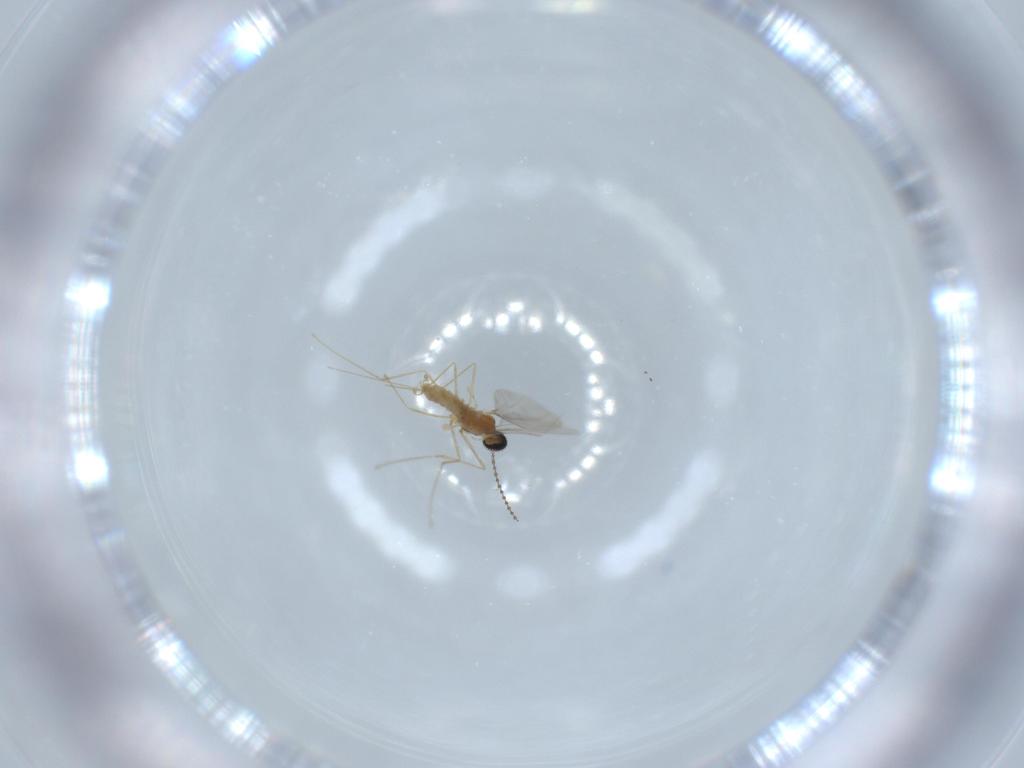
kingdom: Animalia
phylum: Arthropoda
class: Insecta
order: Diptera
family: Cecidomyiidae
